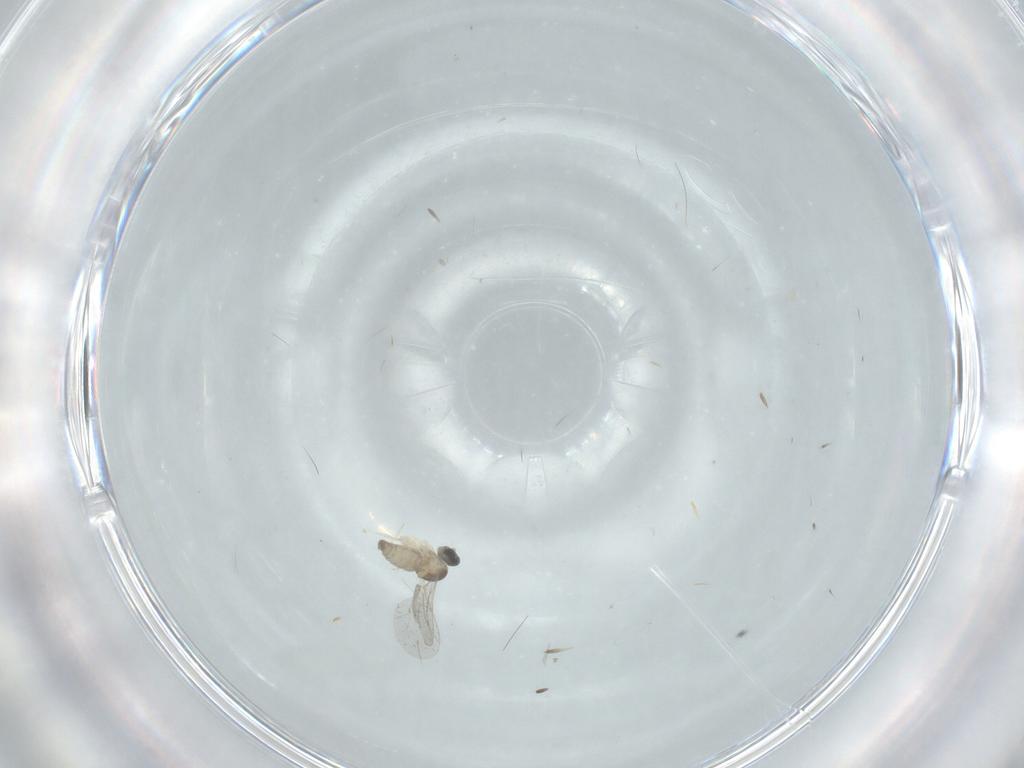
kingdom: Animalia
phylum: Arthropoda
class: Insecta
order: Diptera
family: Cecidomyiidae
